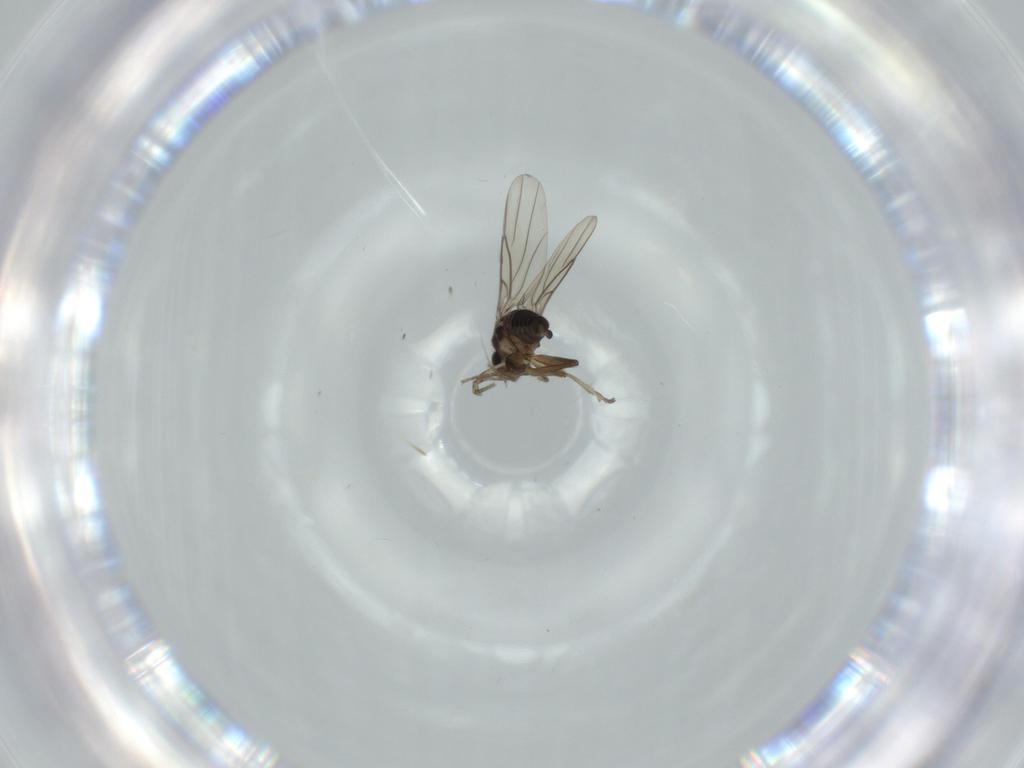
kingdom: Animalia
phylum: Arthropoda
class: Insecta
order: Diptera
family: Phoridae
